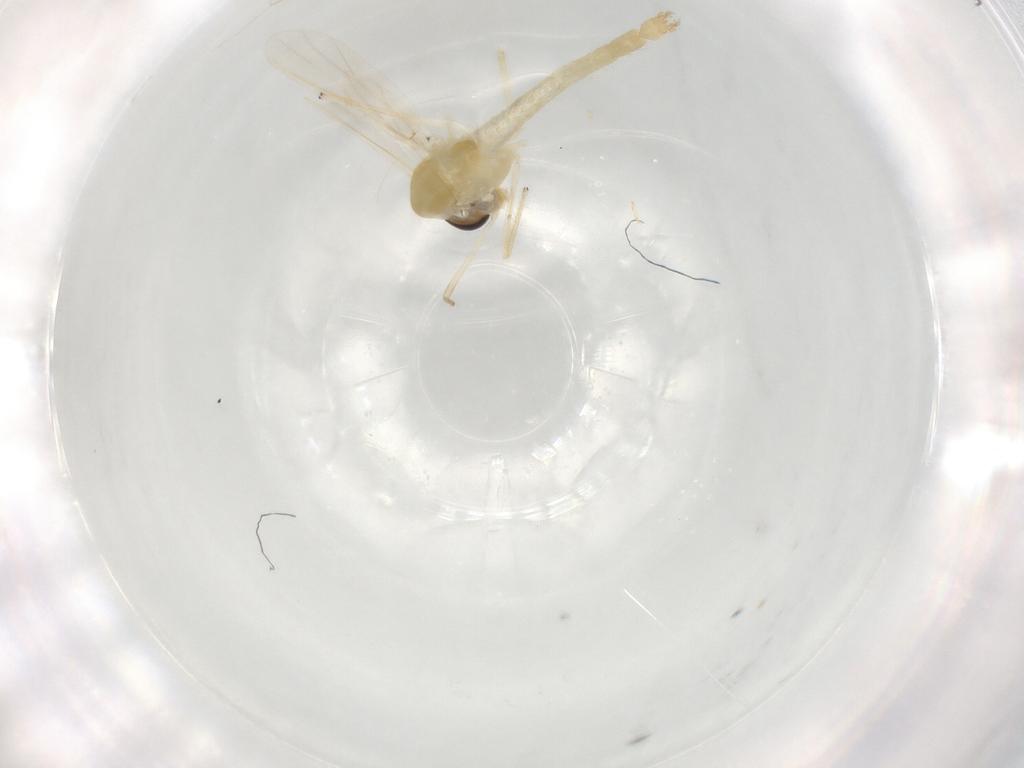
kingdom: Animalia
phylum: Arthropoda
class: Insecta
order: Diptera
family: Chironomidae
